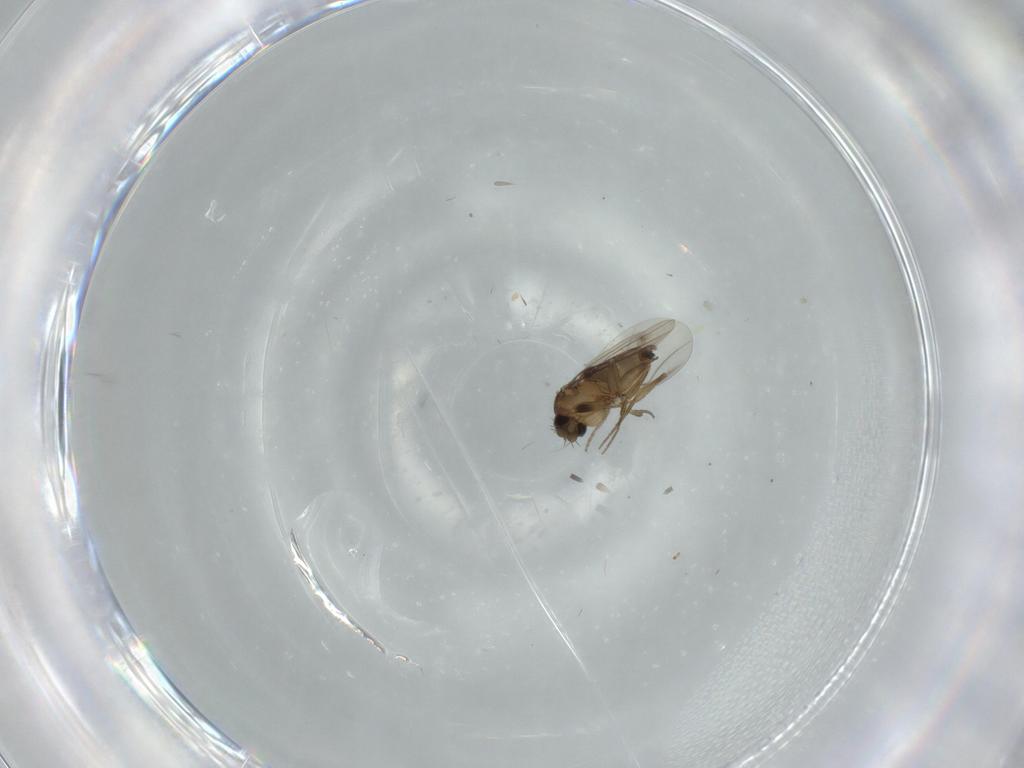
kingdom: Animalia
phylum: Arthropoda
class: Insecta
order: Diptera
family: Phoridae
